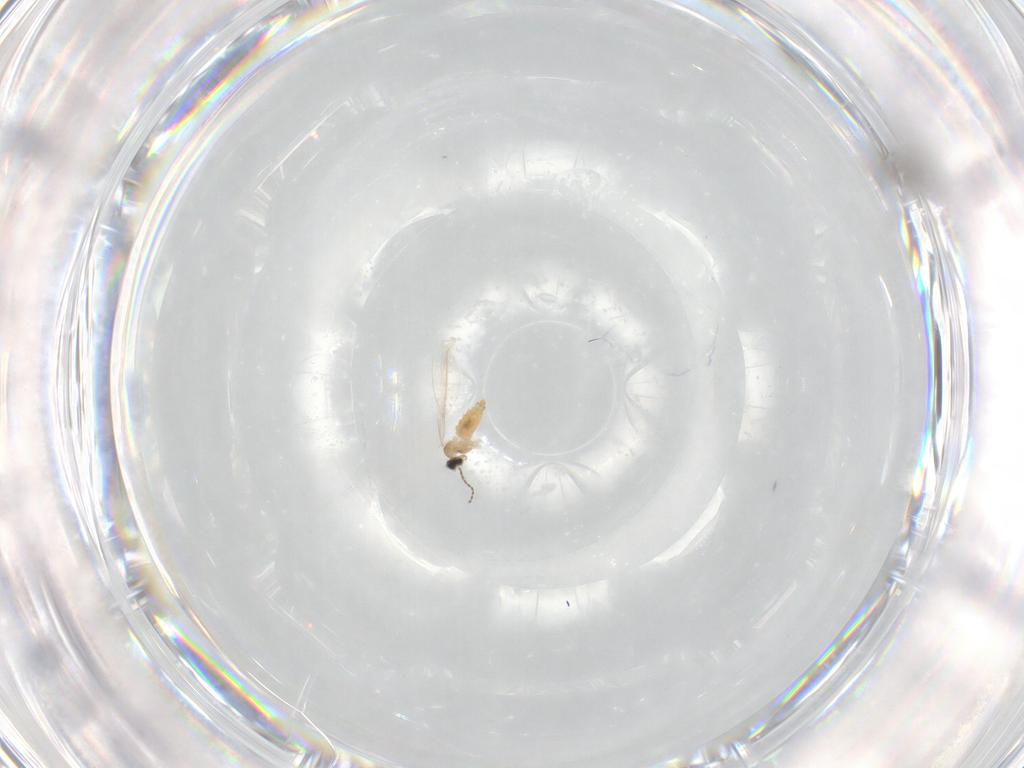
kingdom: Animalia
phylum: Arthropoda
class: Insecta
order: Diptera
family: Cecidomyiidae
